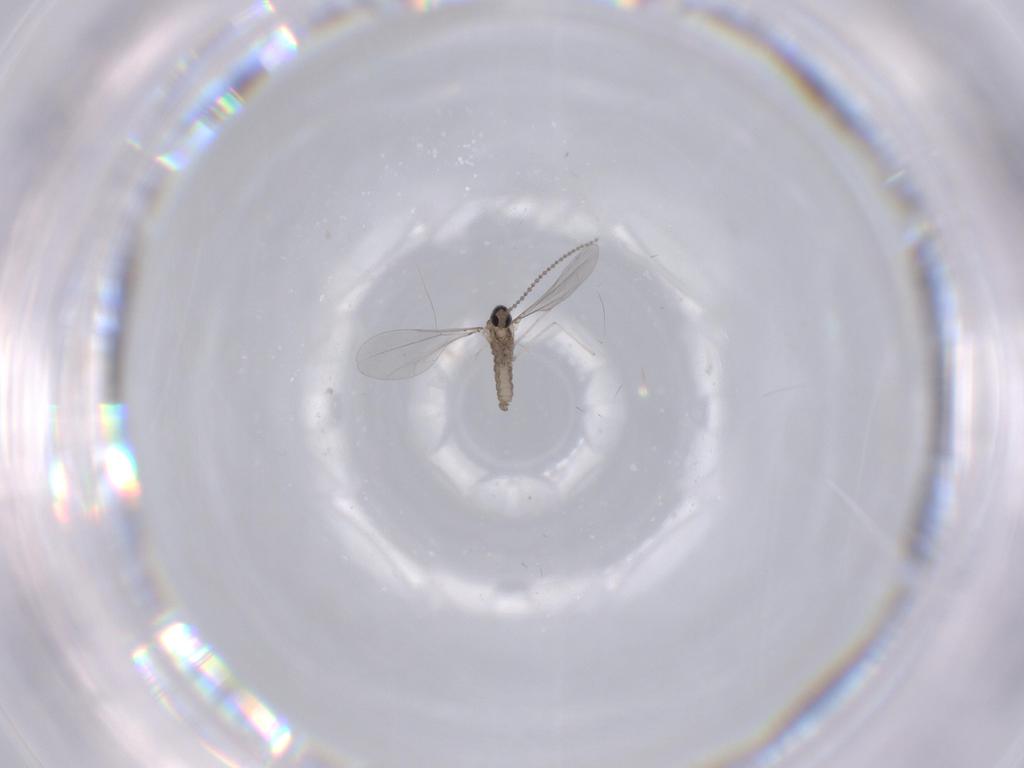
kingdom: Animalia
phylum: Arthropoda
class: Insecta
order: Diptera
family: Cecidomyiidae
